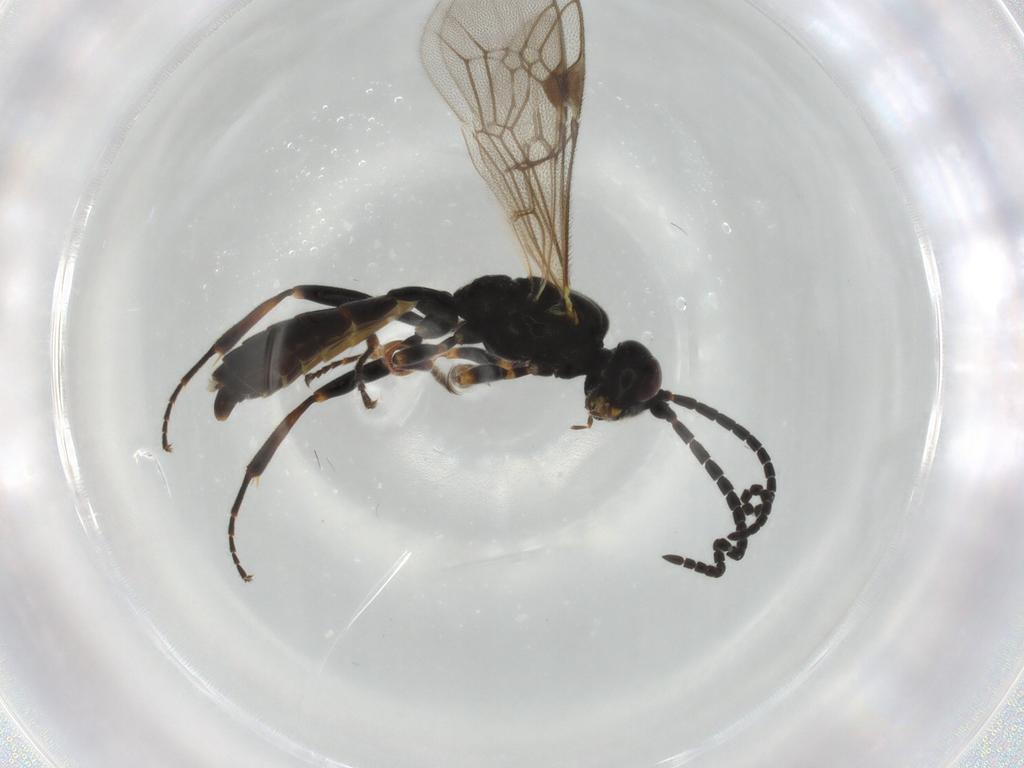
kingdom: Animalia
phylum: Arthropoda
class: Insecta
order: Hymenoptera
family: Ichneumonidae
